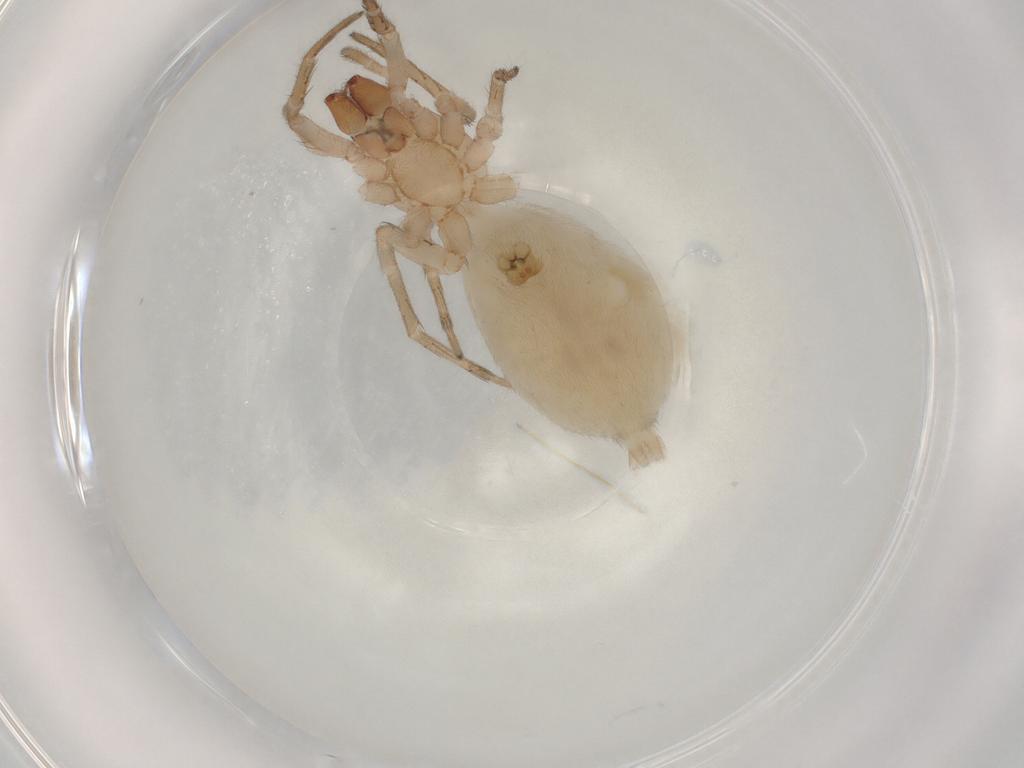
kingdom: Animalia
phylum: Arthropoda
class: Arachnida
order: Araneae
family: Clubionidae
